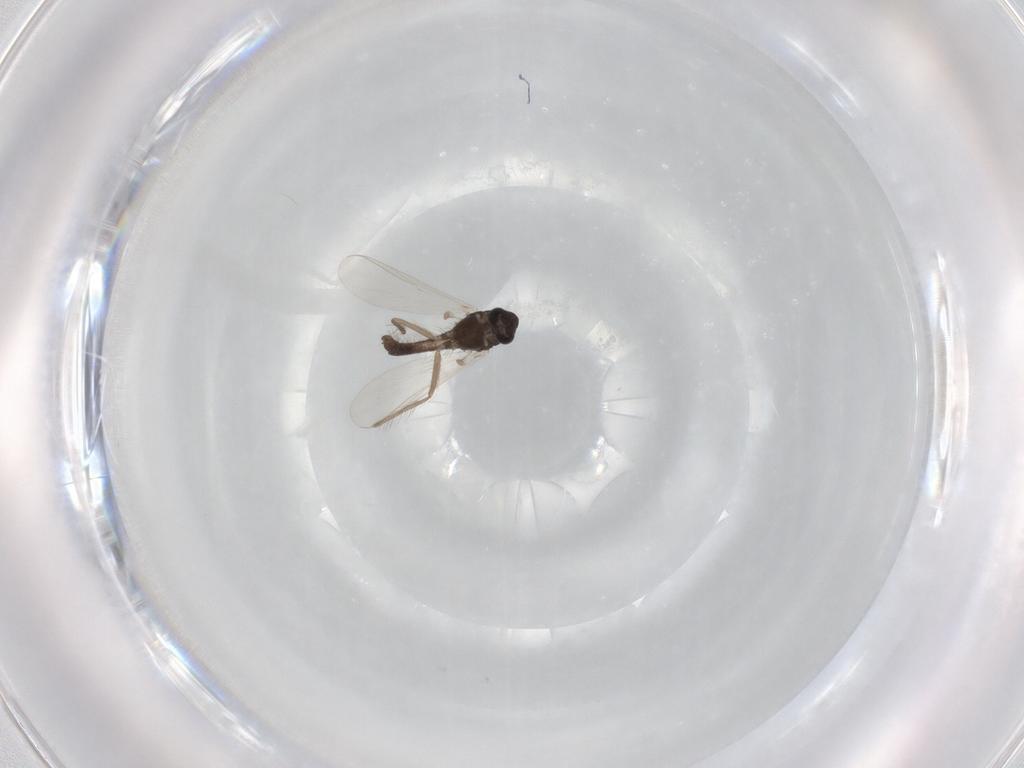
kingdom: Animalia
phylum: Arthropoda
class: Insecta
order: Diptera
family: Chironomidae
